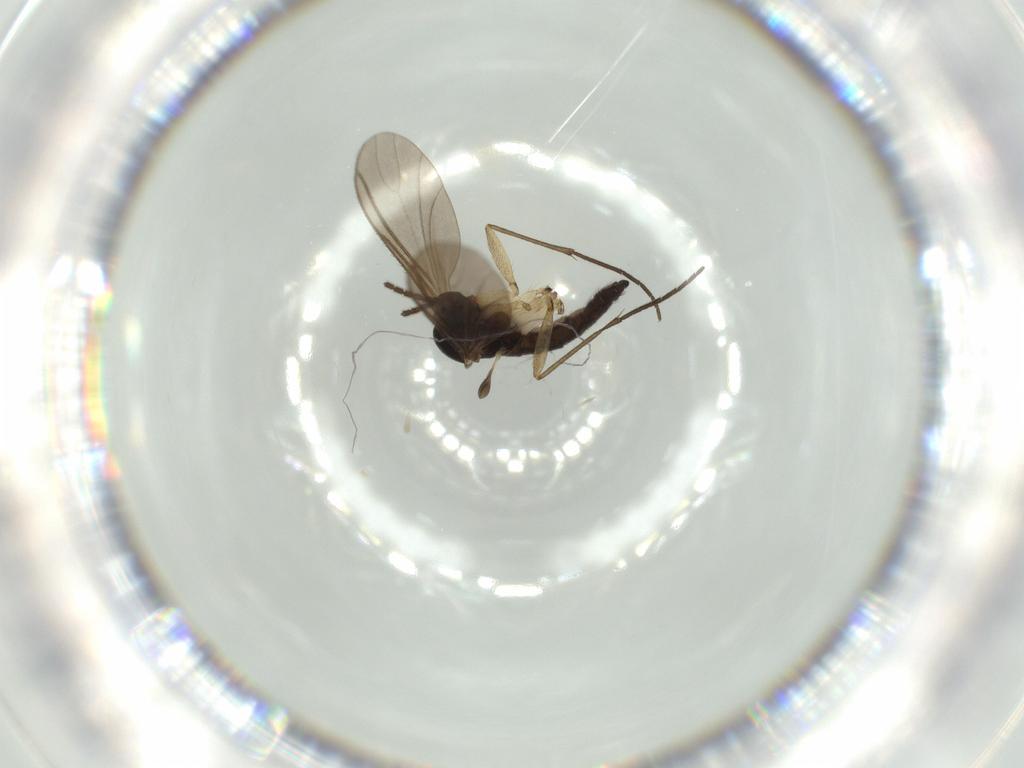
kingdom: Animalia
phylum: Arthropoda
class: Insecta
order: Diptera
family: Sciaridae
